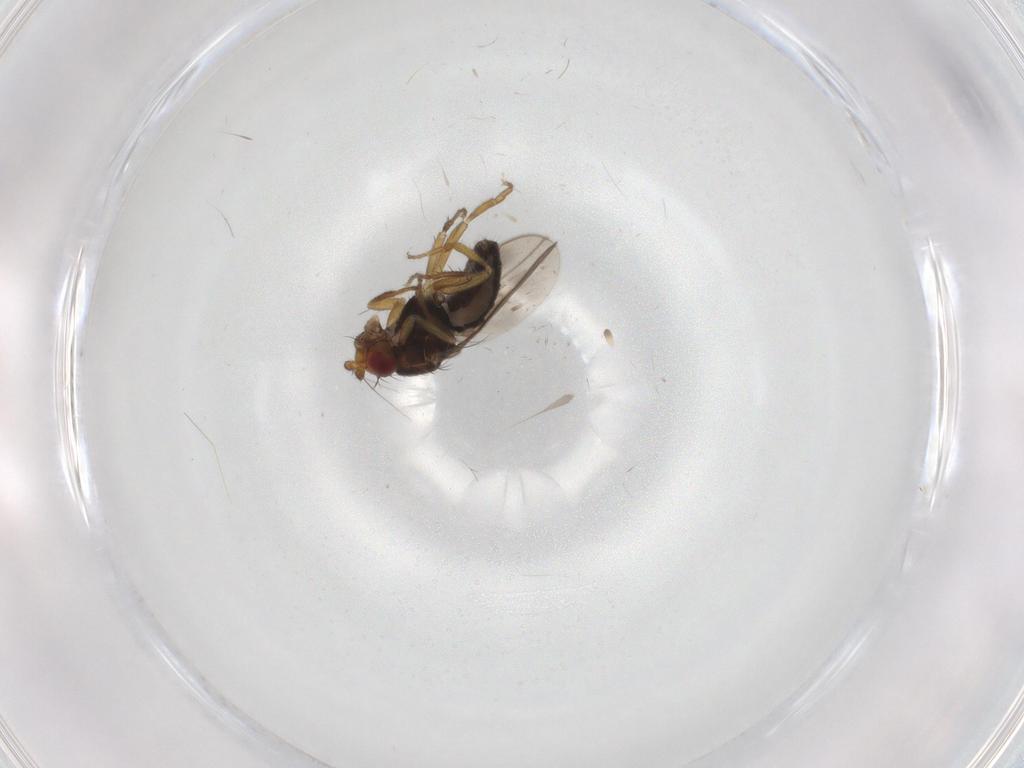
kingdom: Animalia
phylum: Arthropoda
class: Insecta
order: Diptera
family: Sphaeroceridae
